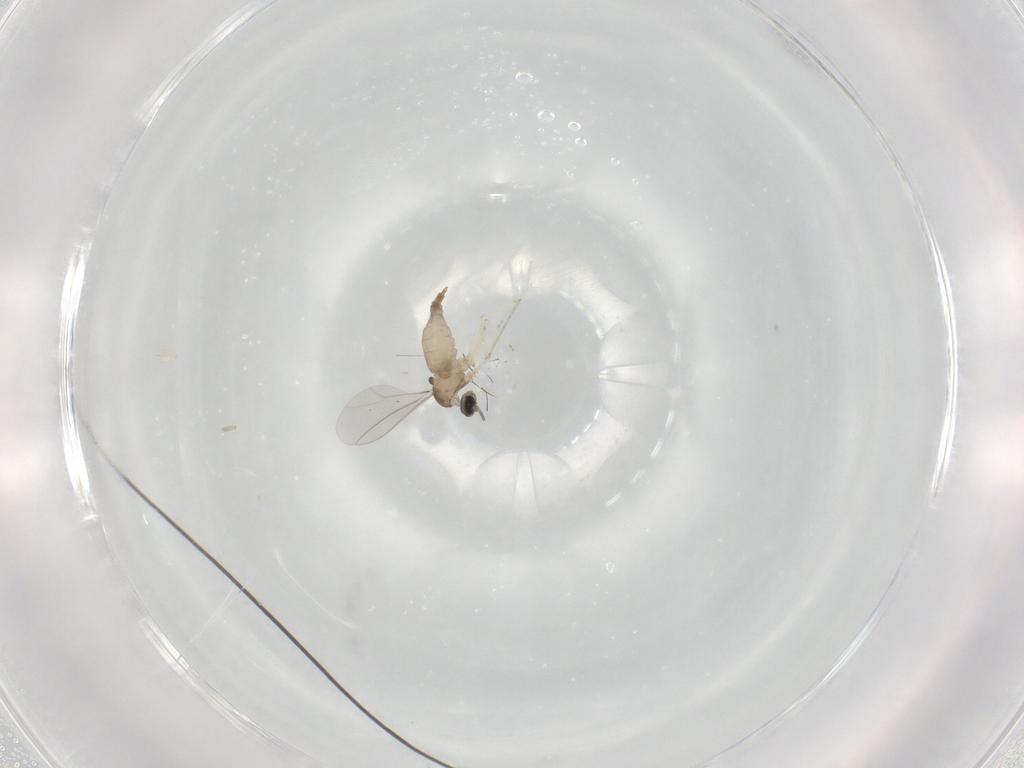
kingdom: Animalia
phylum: Arthropoda
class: Insecta
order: Diptera
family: Cecidomyiidae
